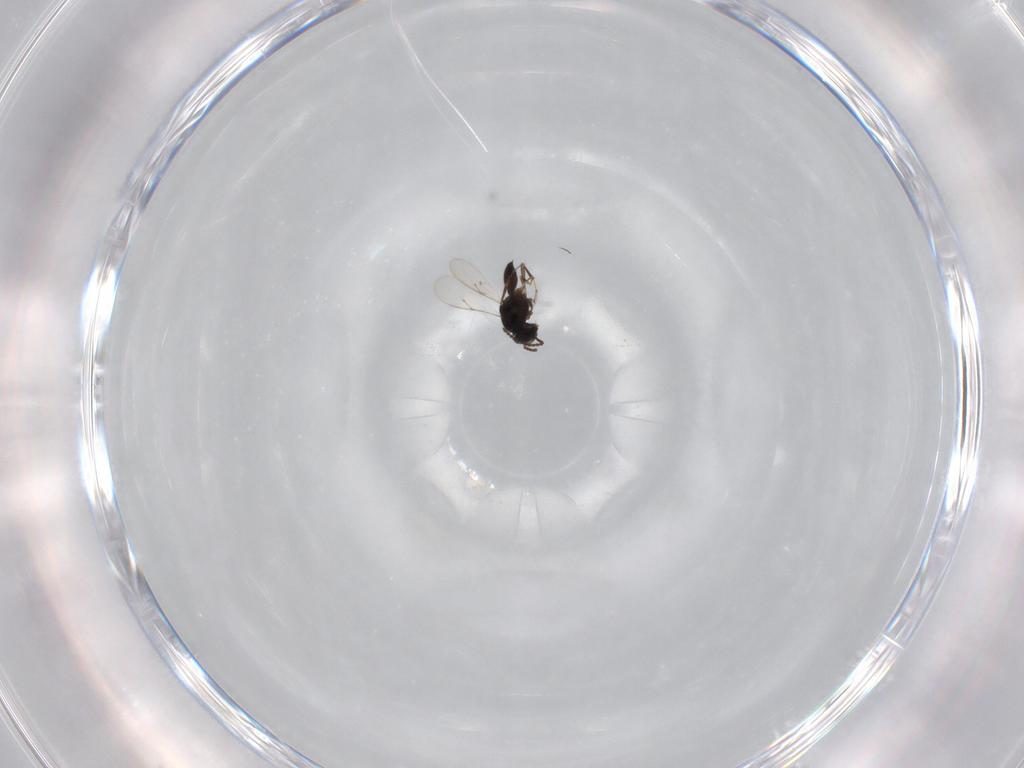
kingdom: Animalia
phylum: Arthropoda
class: Insecta
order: Hymenoptera
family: Scelionidae
